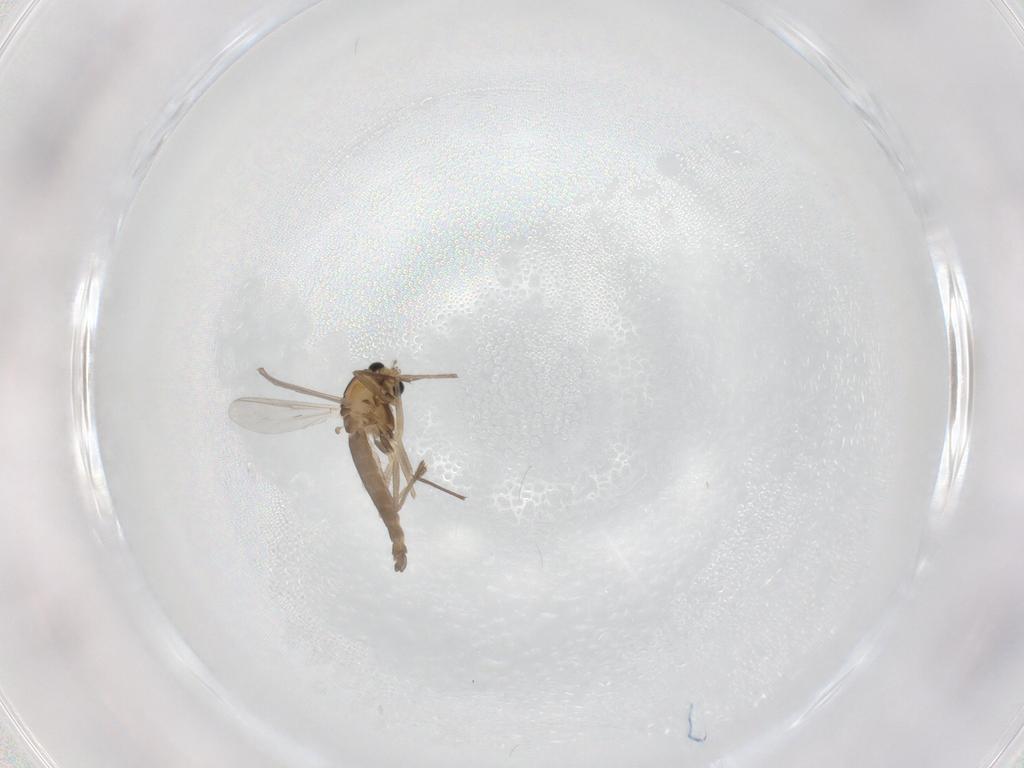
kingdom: Animalia
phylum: Arthropoda
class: Insecta
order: Diptera
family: Chironomidae
